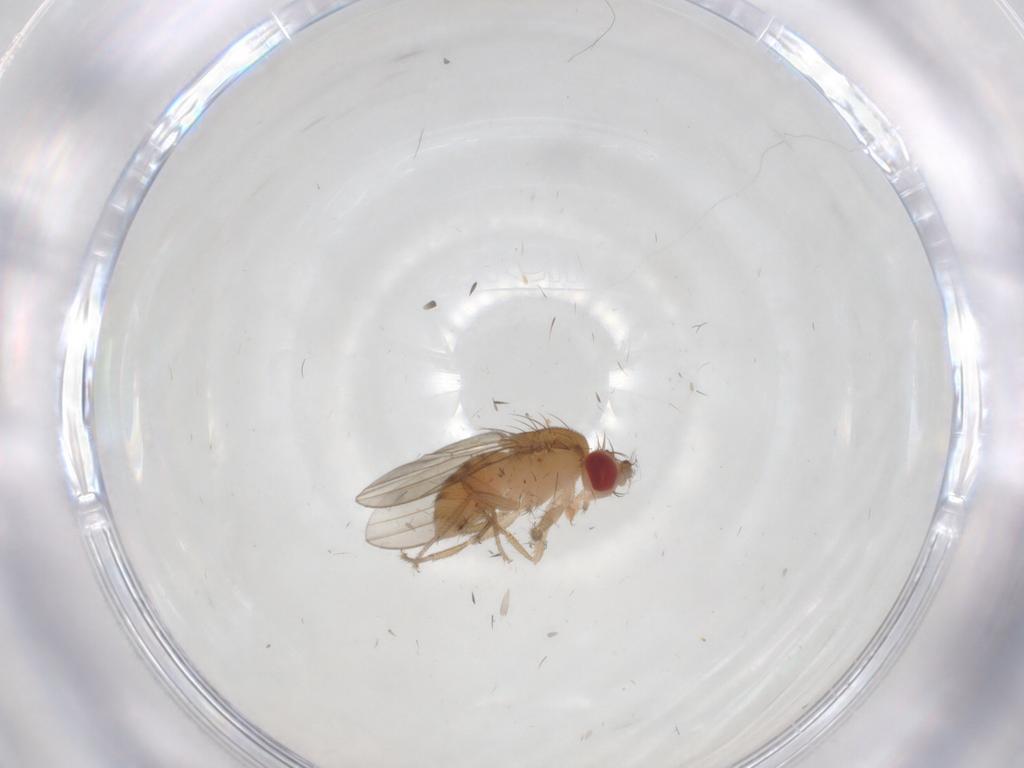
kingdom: Animalia
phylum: Arthropoda
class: Insecta
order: Diptera
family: Drosophilidae
